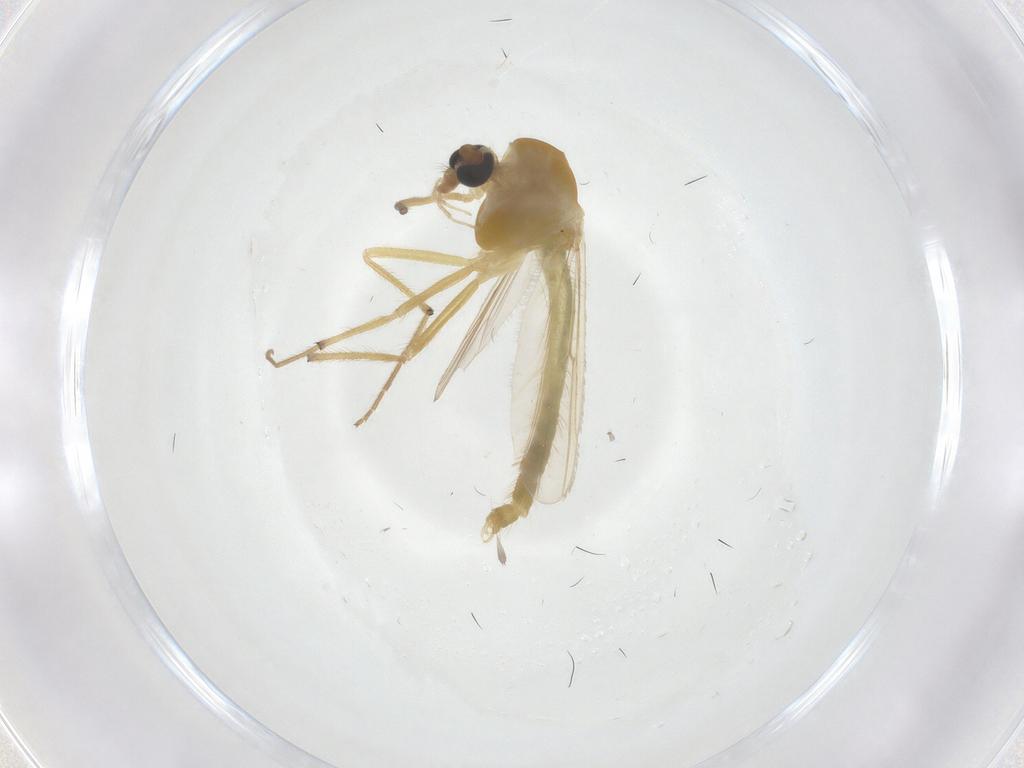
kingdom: Animalia
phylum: Arthropoda
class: Insecta
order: Diptera
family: Chironomidae
